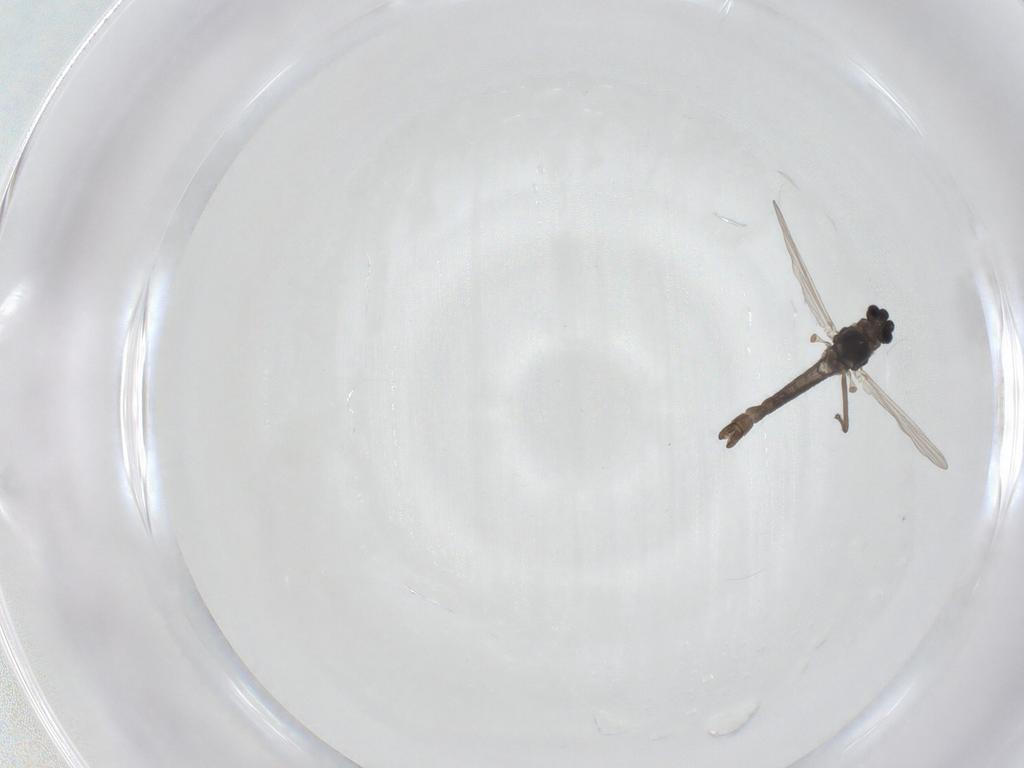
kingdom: Animalia
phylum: Arthropoda
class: Insecta
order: Diptera
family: Chironomidae
